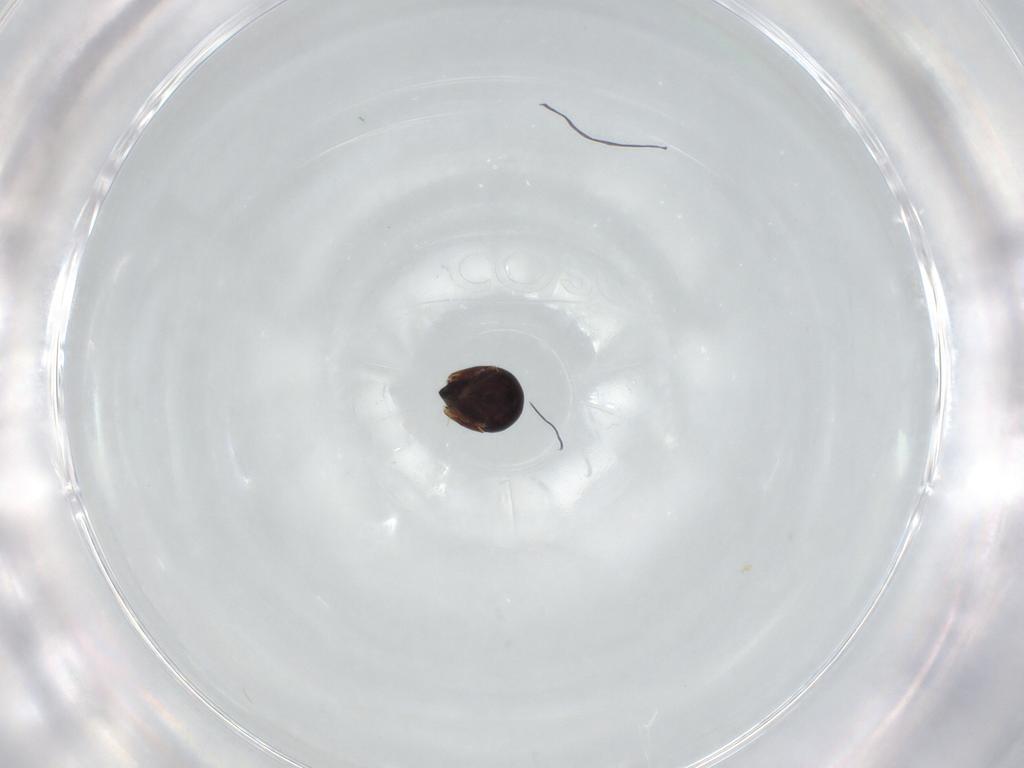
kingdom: Animalia
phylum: Arthropoda
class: Arachnida
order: Sarcoptiformes
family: Ceratozetidae
